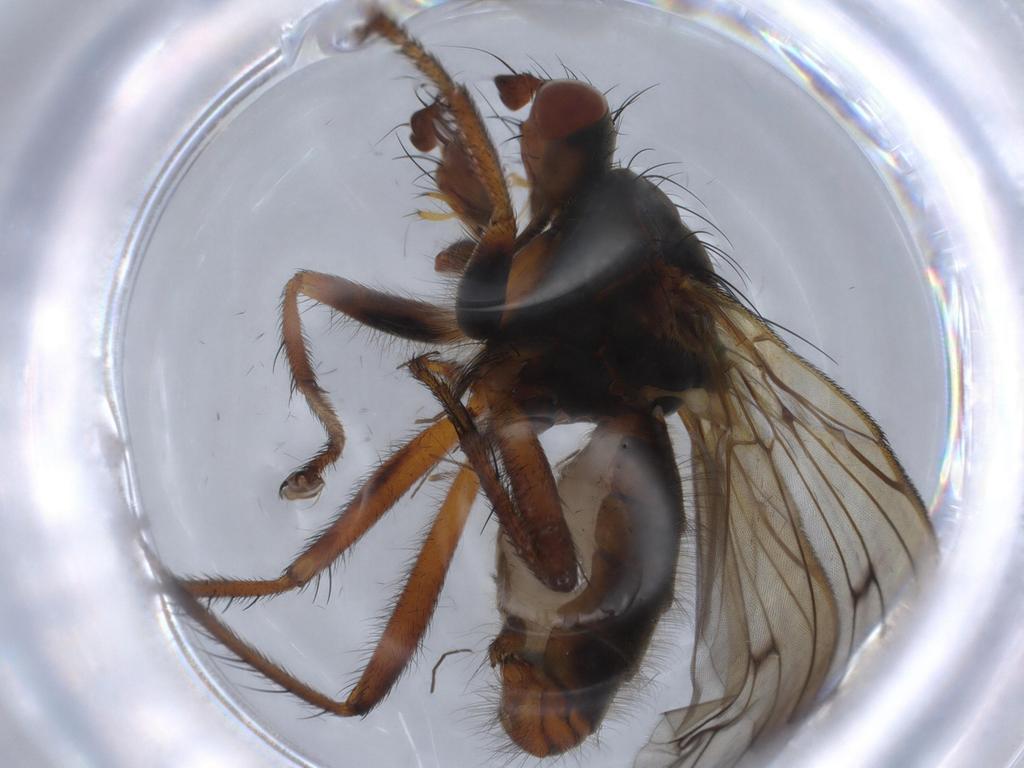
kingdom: Animalia
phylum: Arthropoda
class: Insecta
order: Diptera
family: Scathophagidae
